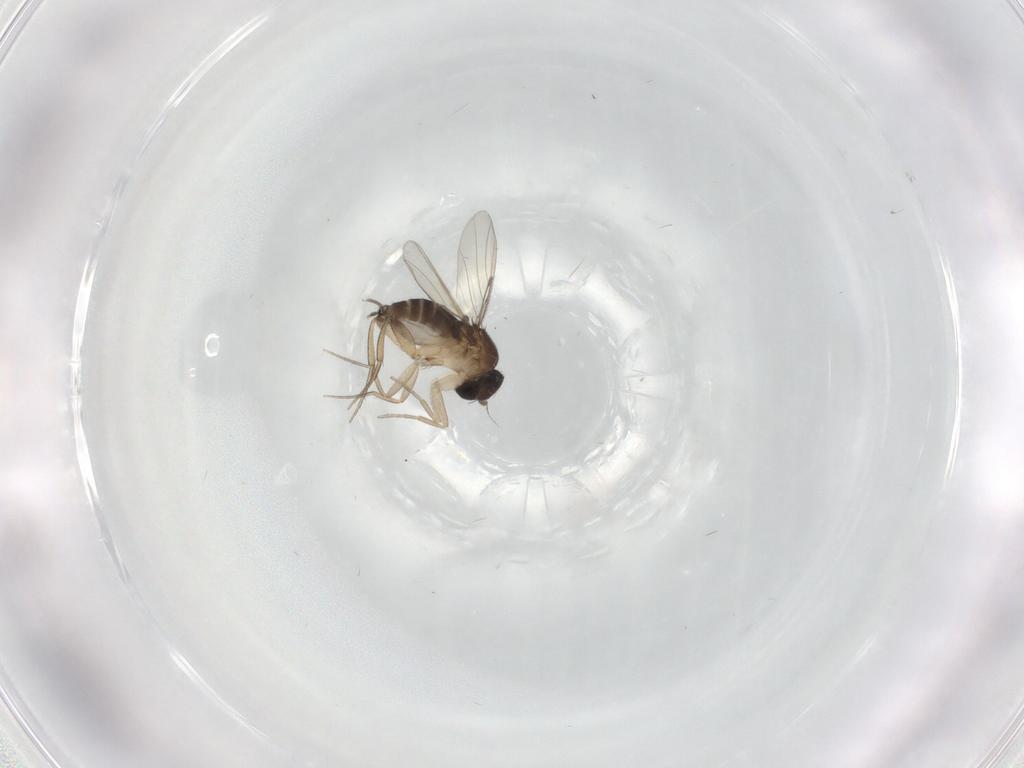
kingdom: Animalia
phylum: Arthropoda
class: Insecta
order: Diptera
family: Phoridae
